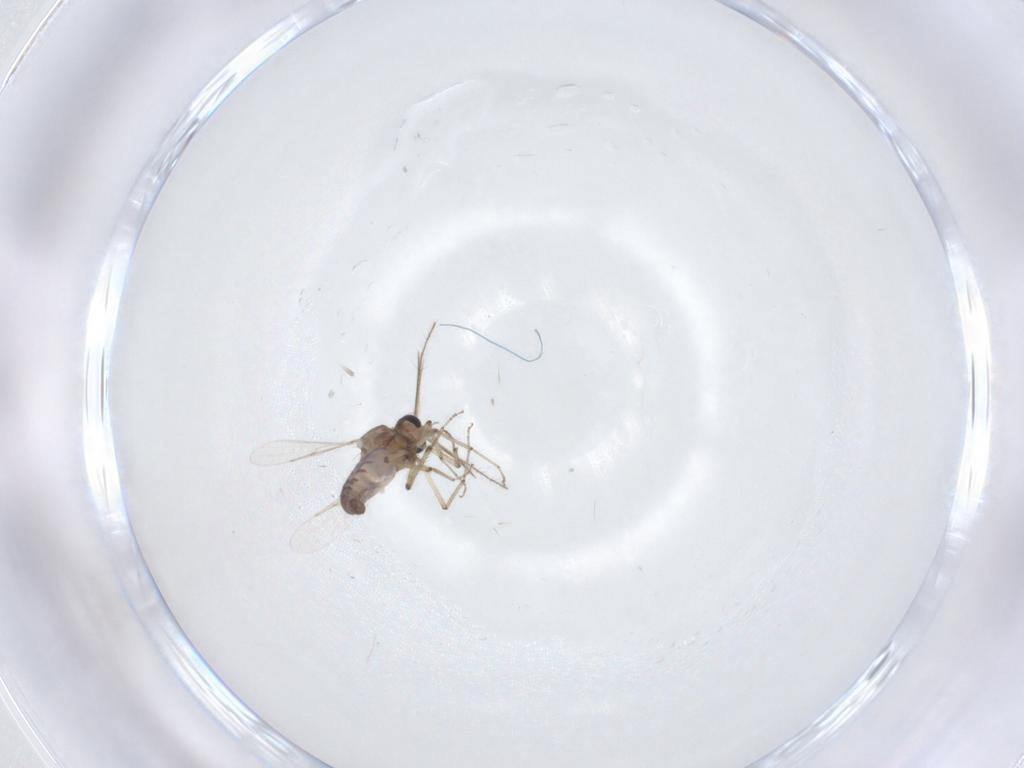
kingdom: Animalia
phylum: Arthropoda
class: Insecta
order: Diptera
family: Ceratopogonidae
